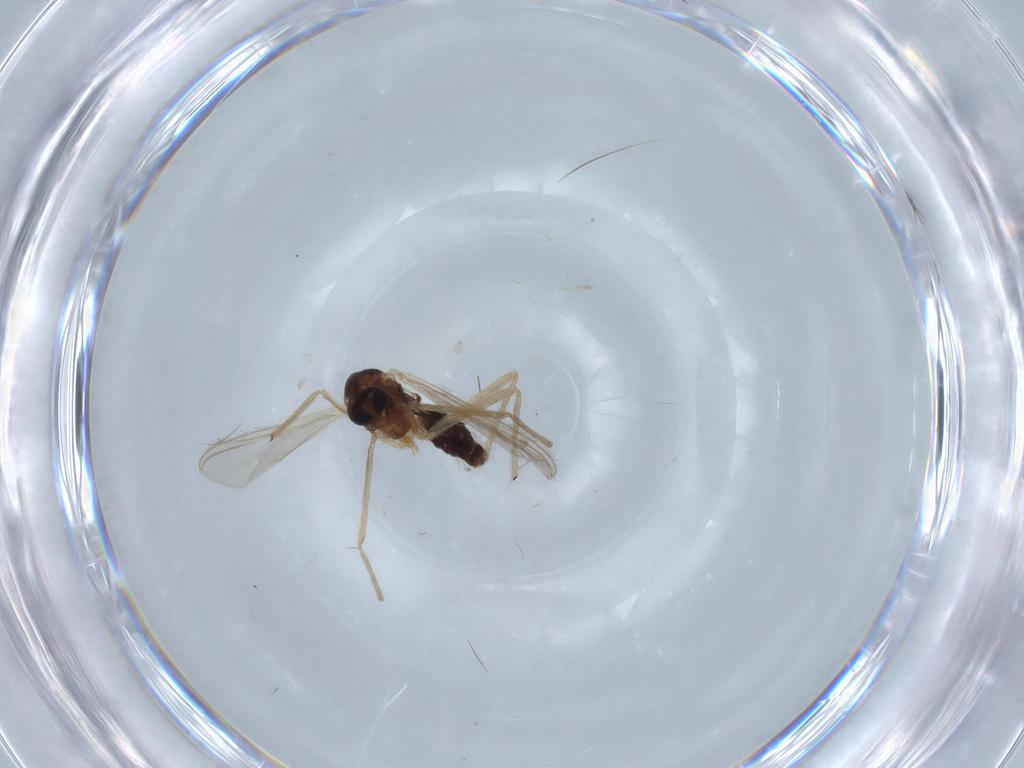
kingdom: Animalia
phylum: Arthropoda
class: Insecta
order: Diptera
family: Chironomidae
